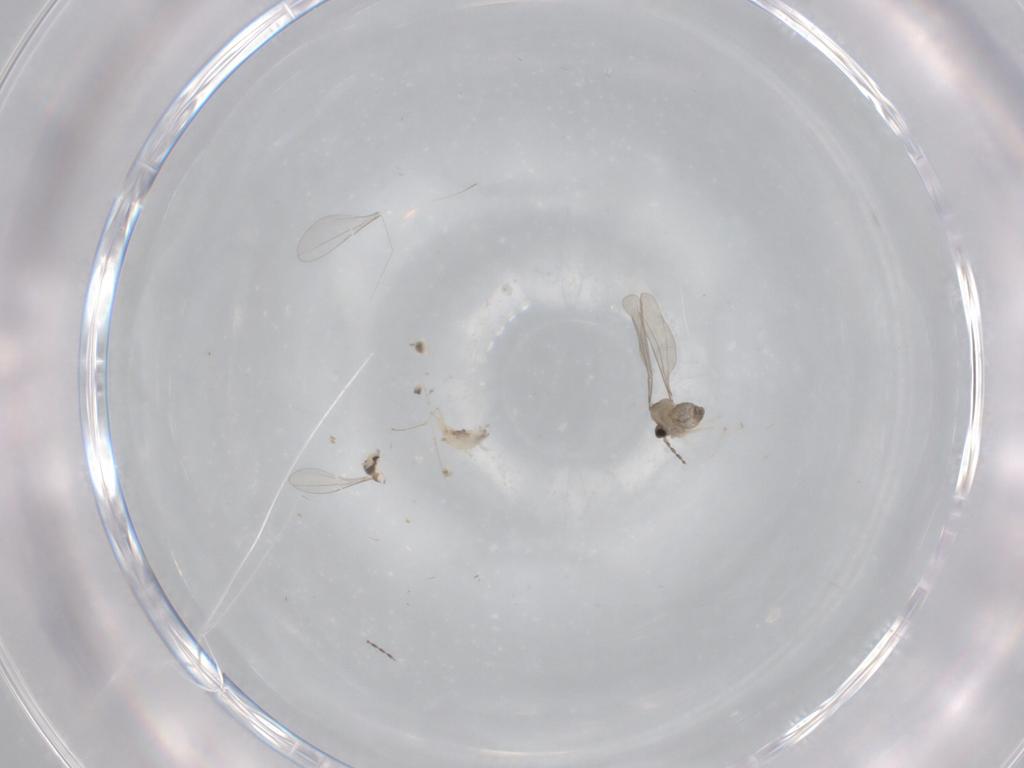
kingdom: Animalia
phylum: Arthropoda
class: Insecta
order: Diptera
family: Cecidomyiidae
